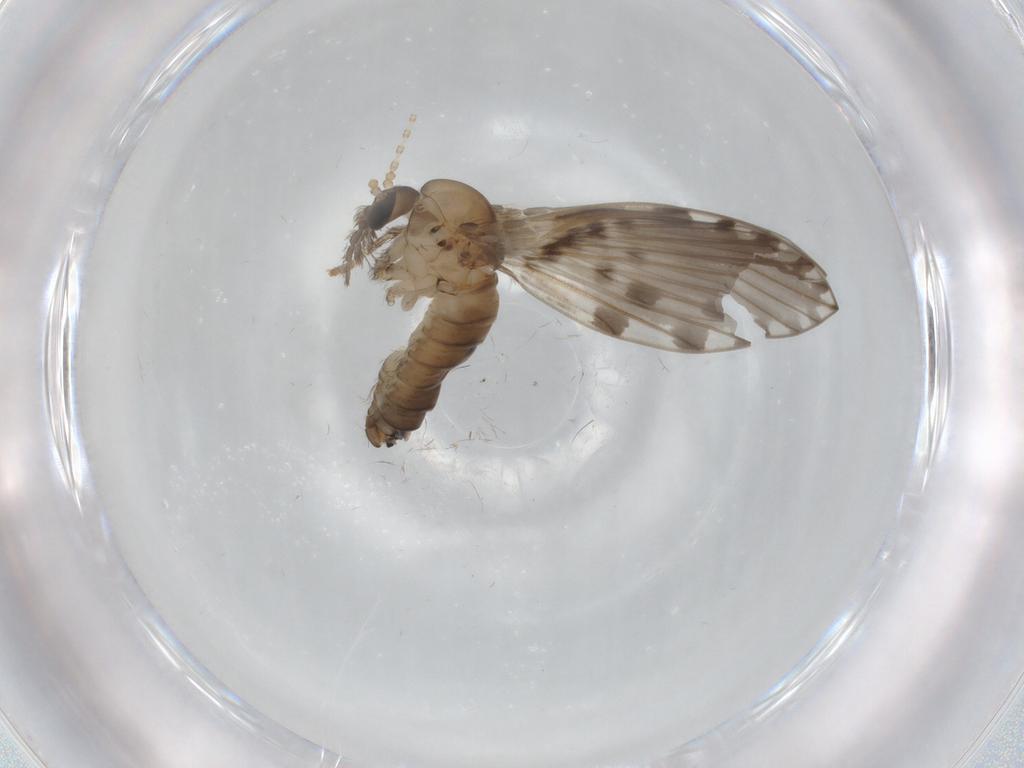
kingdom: Animalia
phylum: Arthropoda
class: Insecta
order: Diptera
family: Psychodidae
